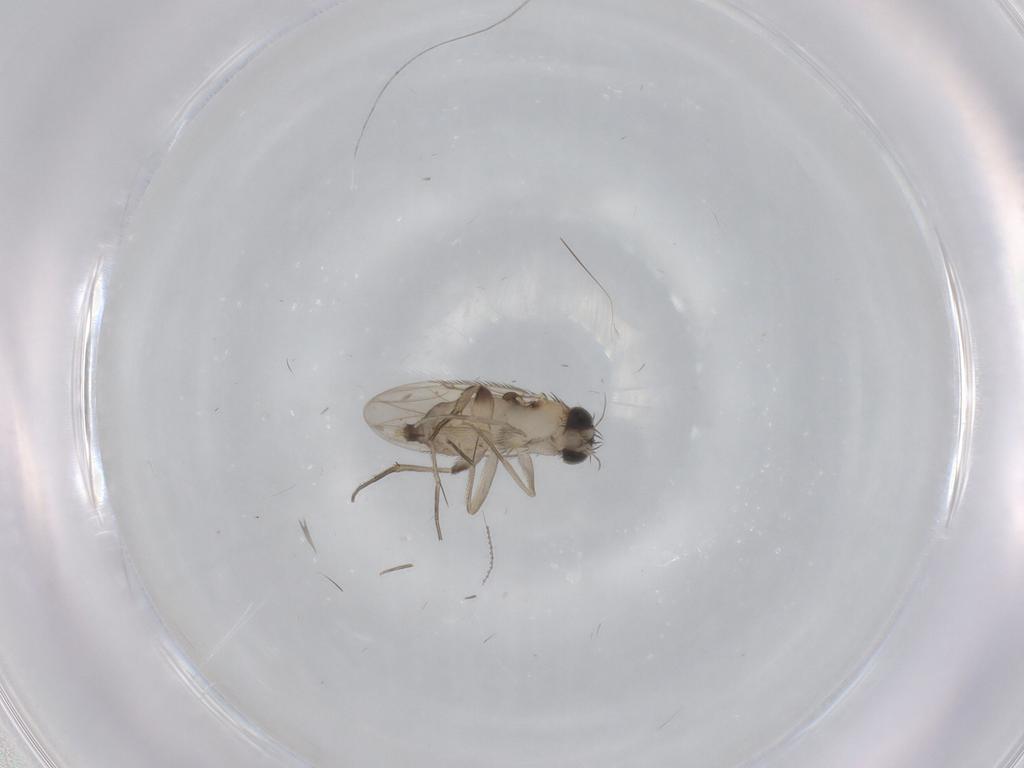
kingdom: Animalia
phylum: Arthropoda
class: Insecta
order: Diptera
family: Phoridae
